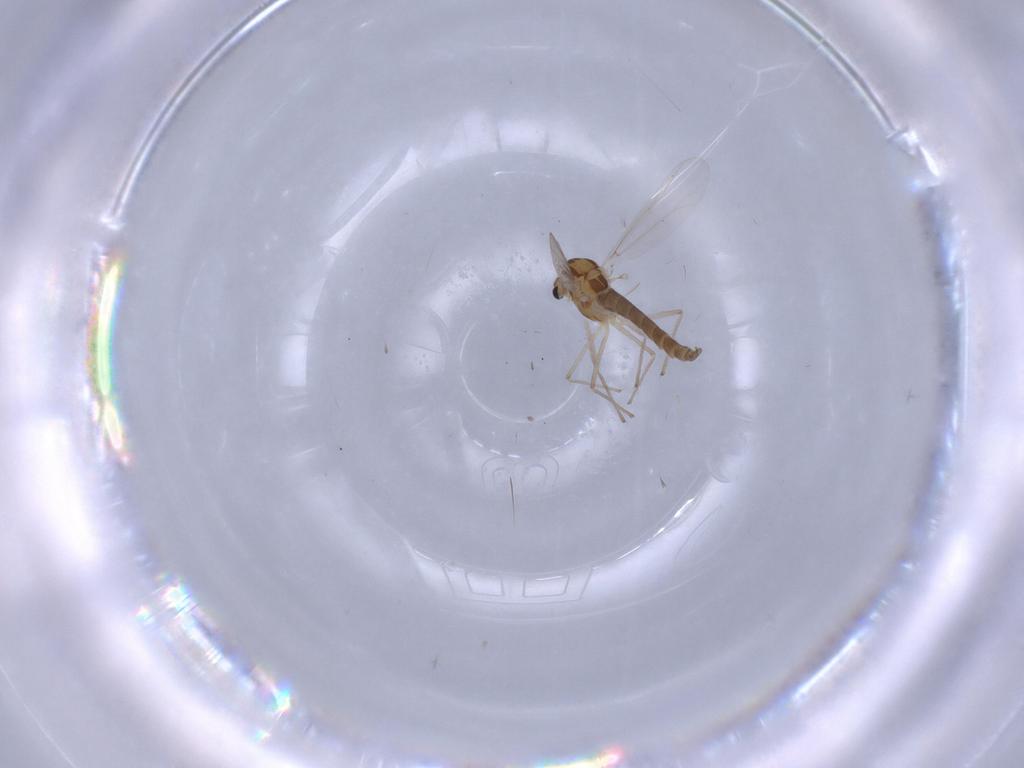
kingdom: Animalia
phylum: Arthropoda
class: Insecta
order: Diptera
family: Chironomidae
